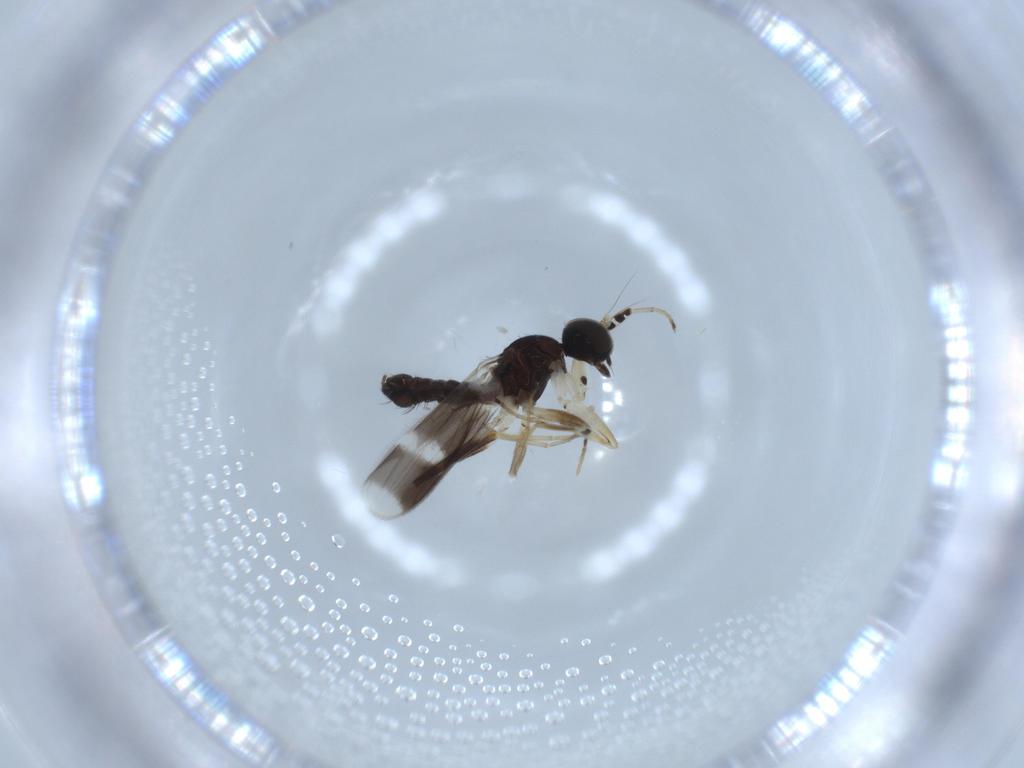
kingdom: Animalia
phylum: Arthropoda
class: Insecta
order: Diptera
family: Hybotidae
